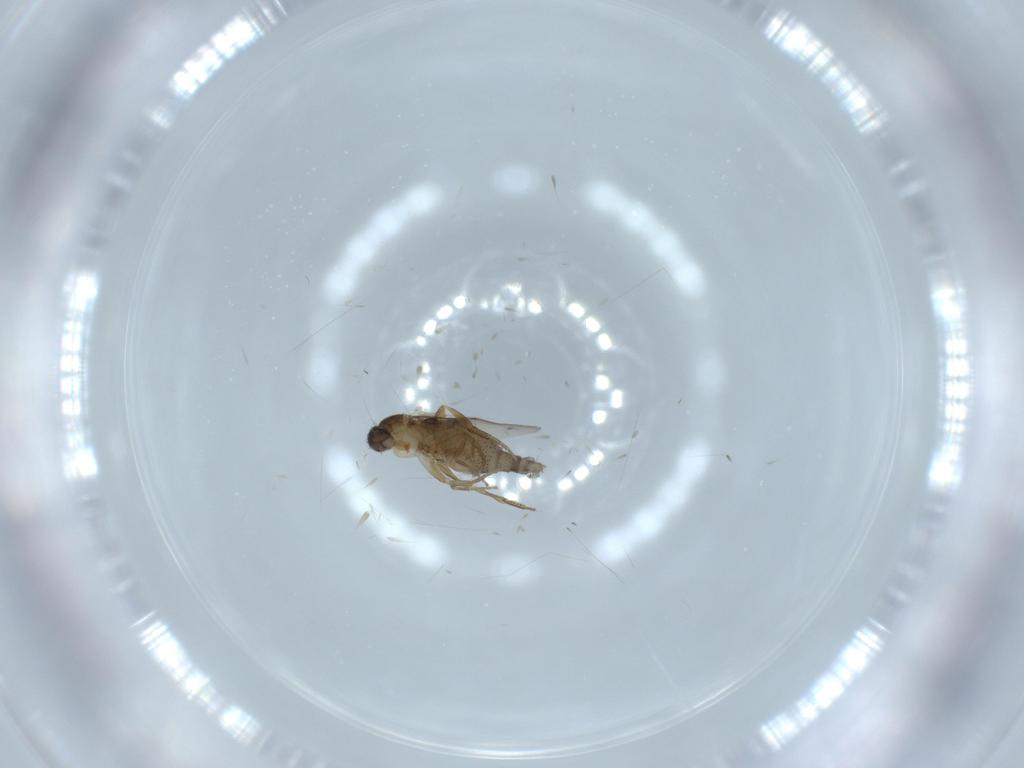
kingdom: Animalia
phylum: Arthropoda
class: Insecta
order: Diptera
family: Phoridae
